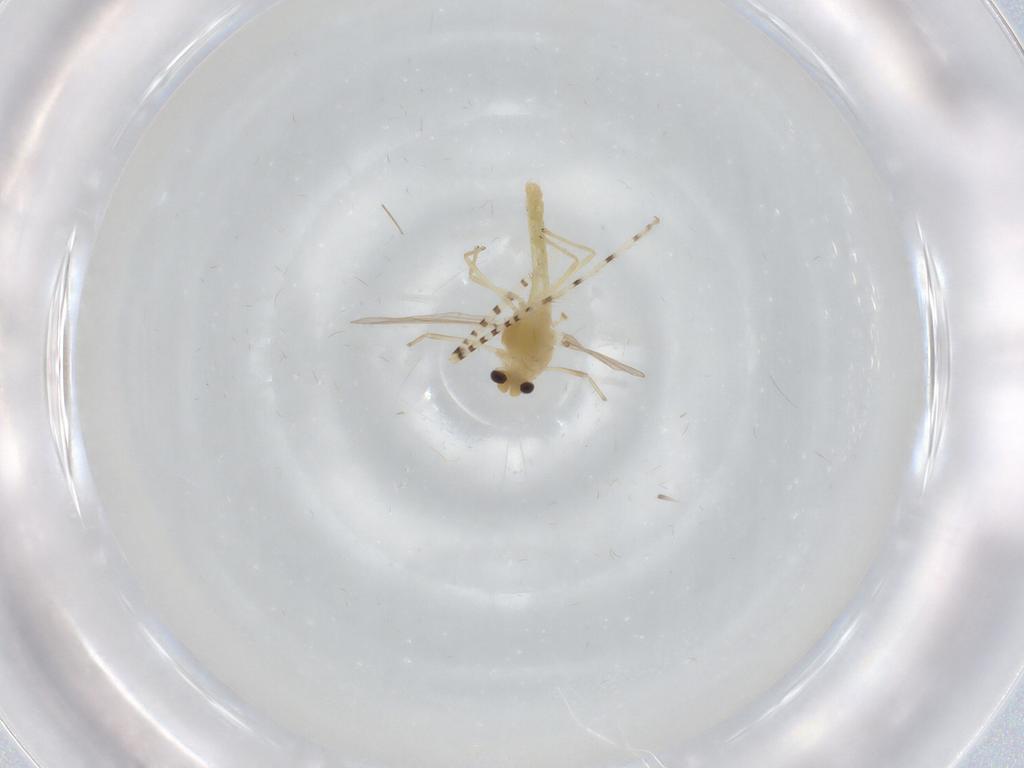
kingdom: Animalia
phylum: Arthropoda
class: Insecta
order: Diptera
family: Chironomidae
